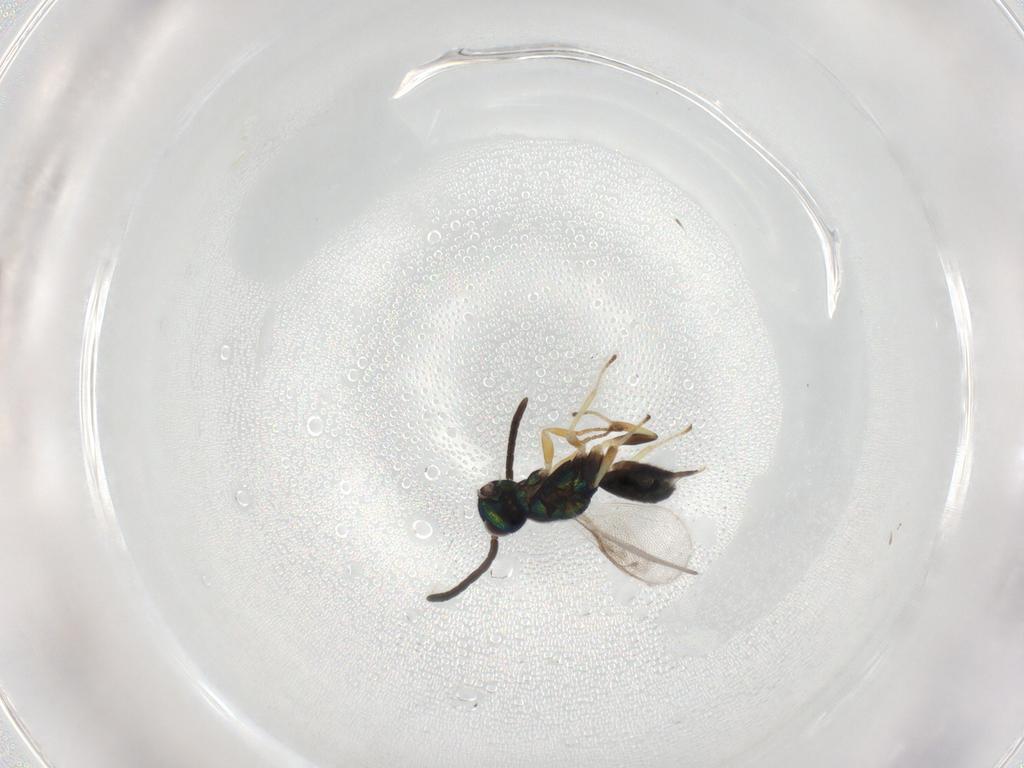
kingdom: Animalia
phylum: Arthropoda
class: Insecta
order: Hymenoptera
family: Eupelmidae
